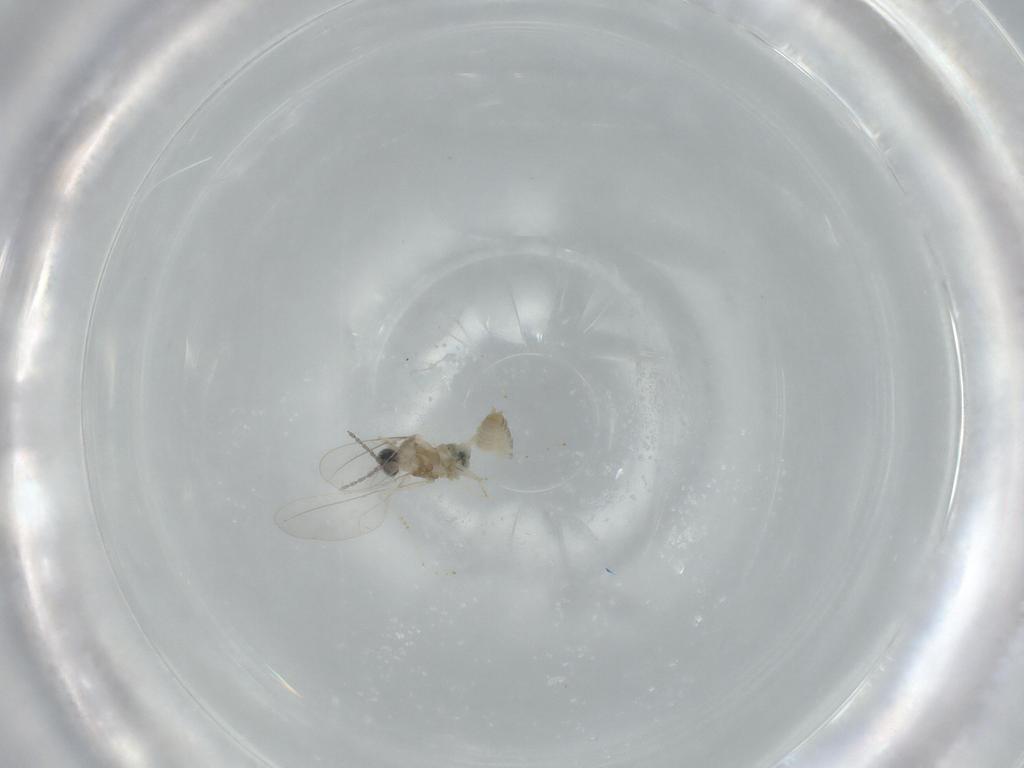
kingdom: Animalia
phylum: Arthropoda
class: Insecta
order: Diptera
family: Cecidomyiidae
